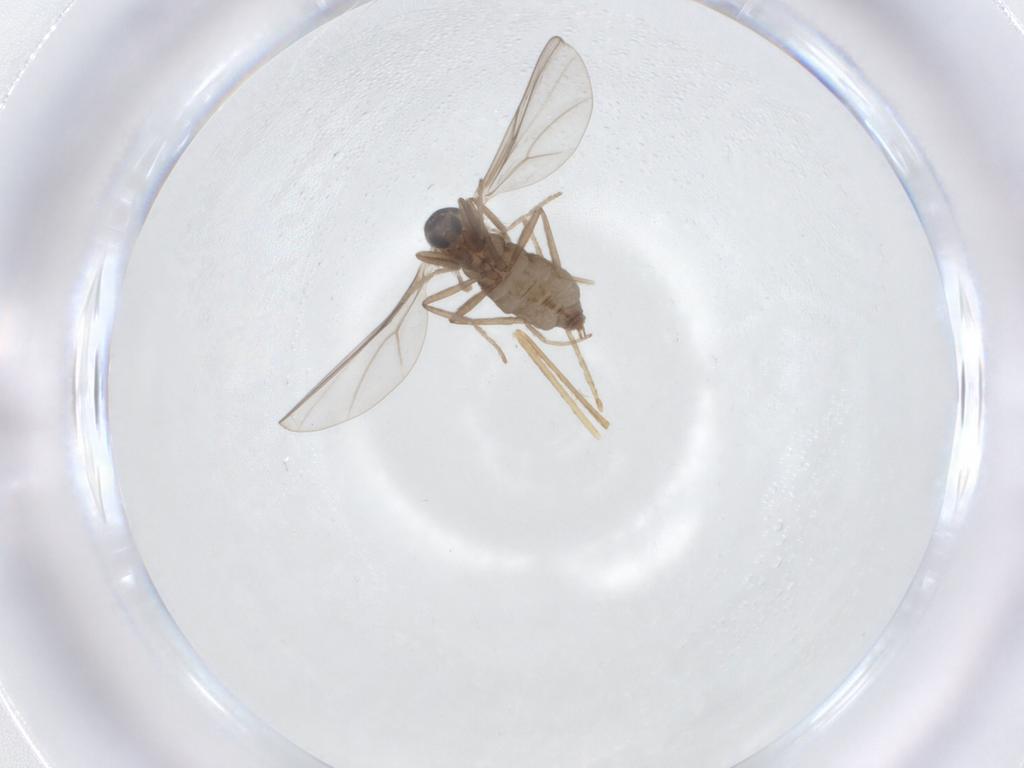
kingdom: Animalia
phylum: Arthropoda
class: Insecta
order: Diptera
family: Cecidomyiidae
